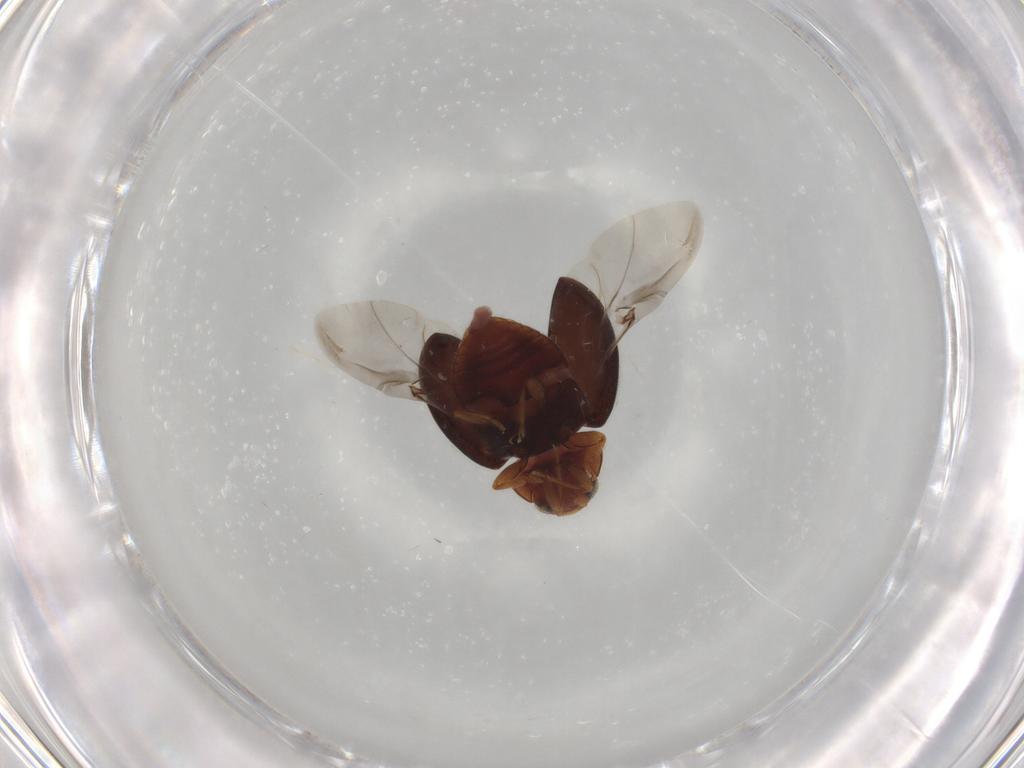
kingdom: Animalia
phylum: Arthropoda
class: Insecta
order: Coleoptera
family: Coccinellidae
